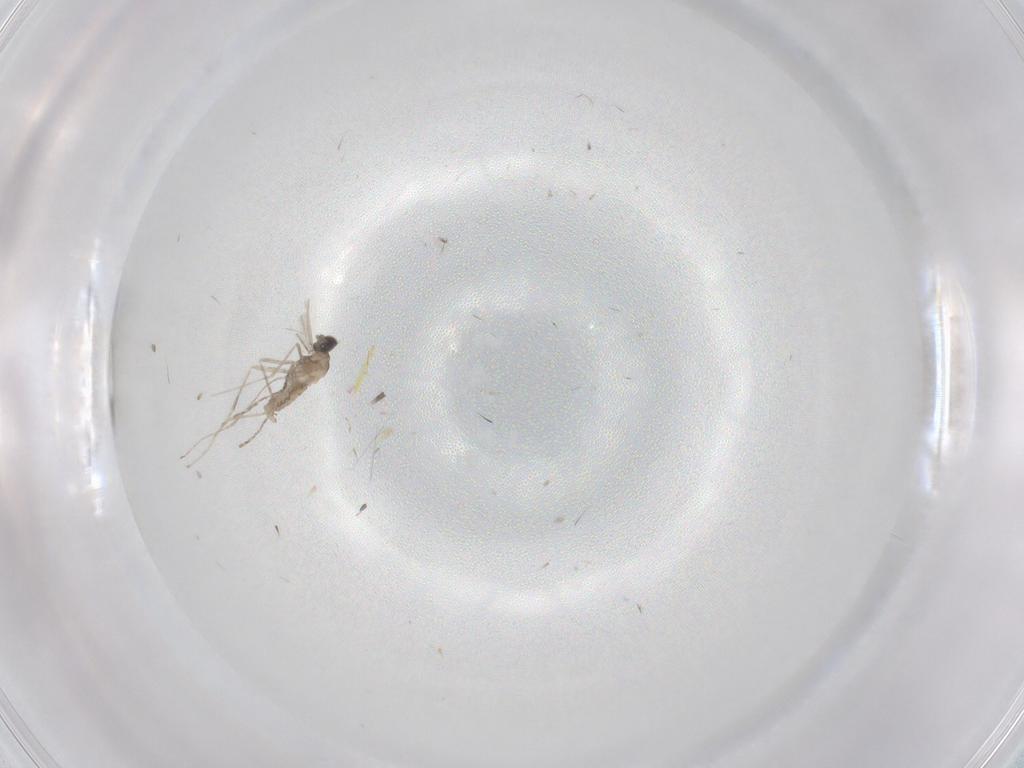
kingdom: Animalia
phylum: Arthropoda
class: Insecta
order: Diptera
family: Cecidomyiidae
